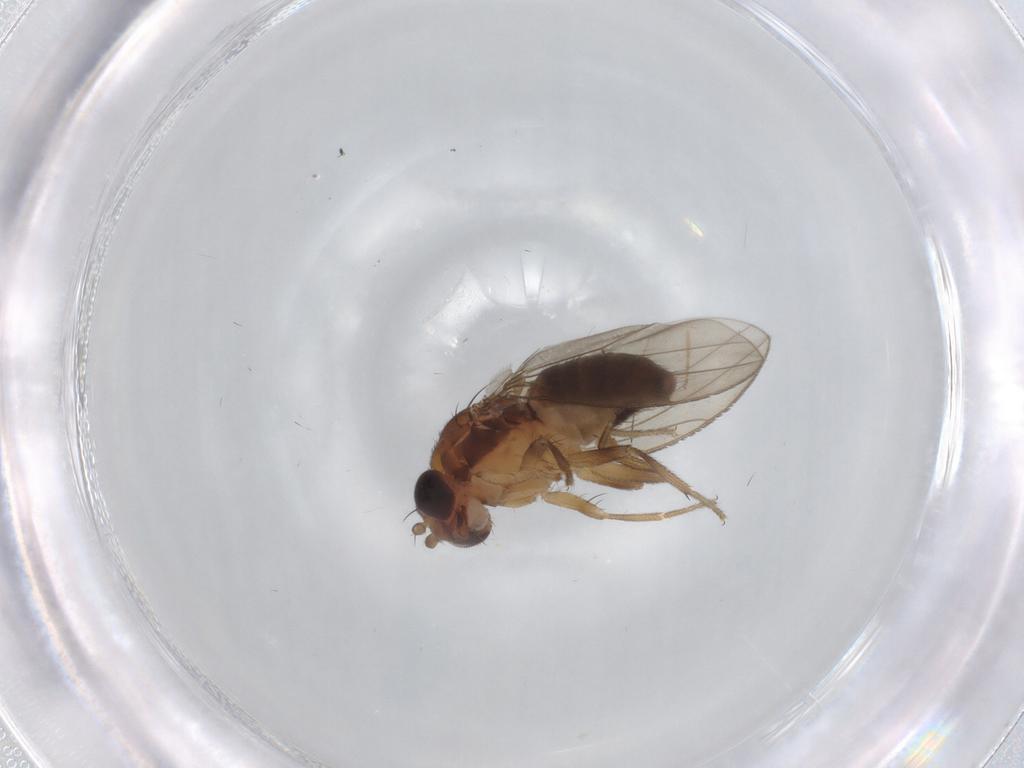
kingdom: Animalia
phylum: Arthropoda
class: Insecta
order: Diptera
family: Drosophilidae
